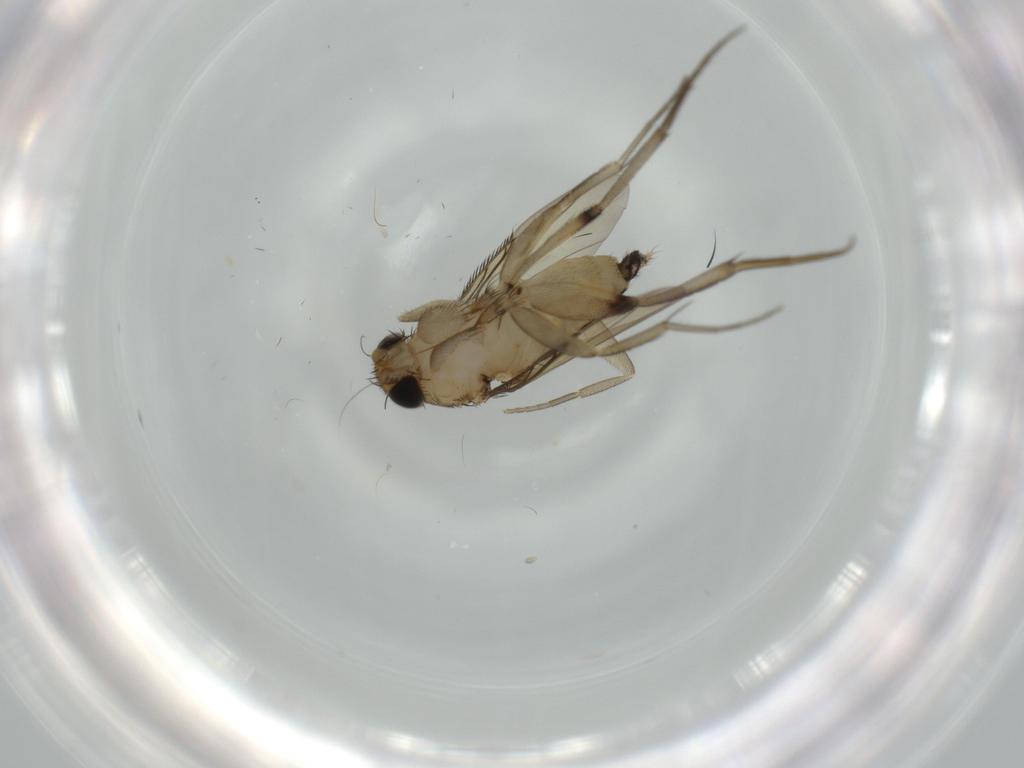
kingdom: Animalia
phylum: Arthropoda
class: Insecta
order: Diptera
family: Phoridae
